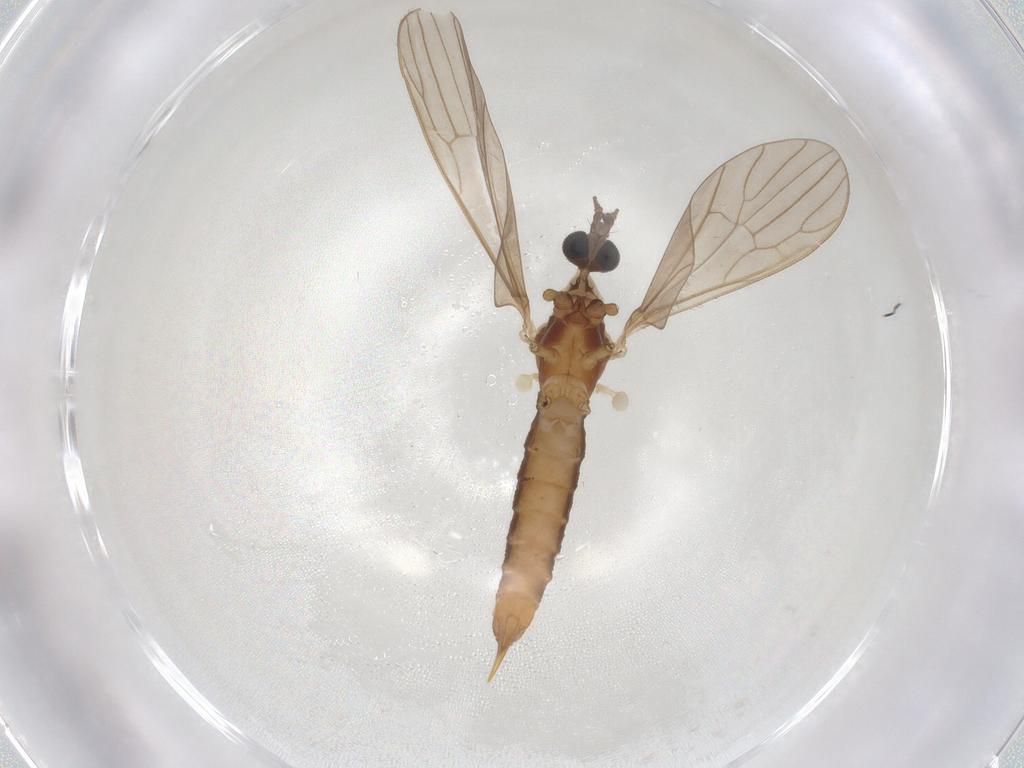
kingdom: Animalia
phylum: Arthropoda
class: Insecta
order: Diptera
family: Limoniidae
